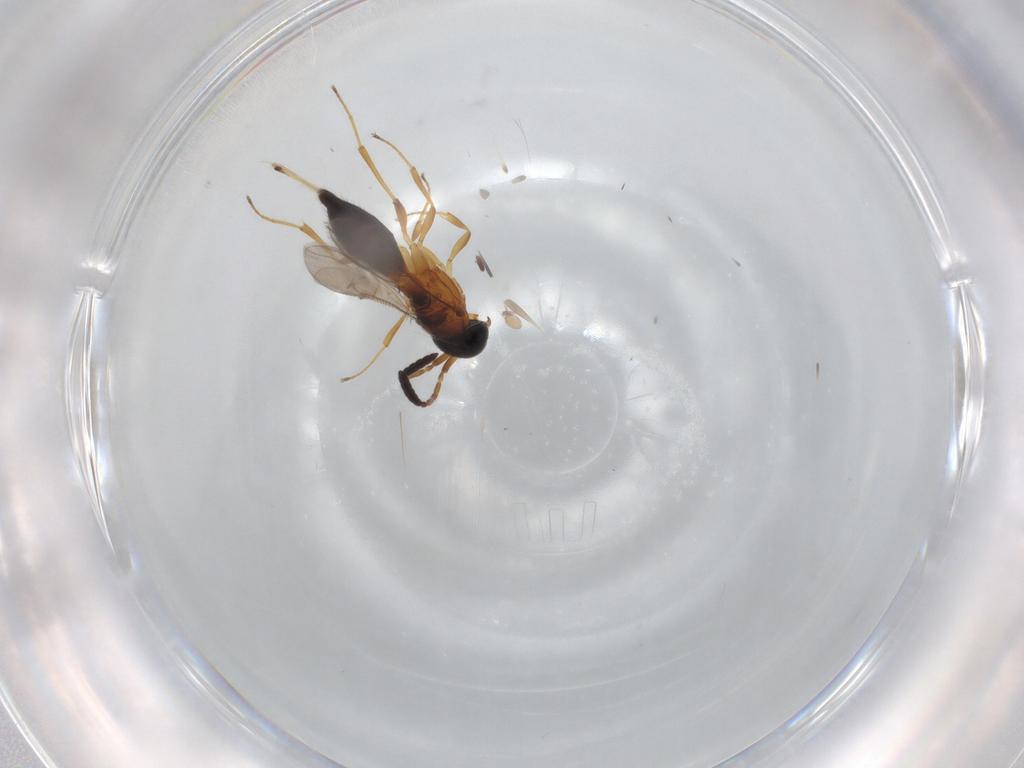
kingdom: Animalia
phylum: Arthropoda
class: Insecta
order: Hymenoptera
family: Scelionidae
